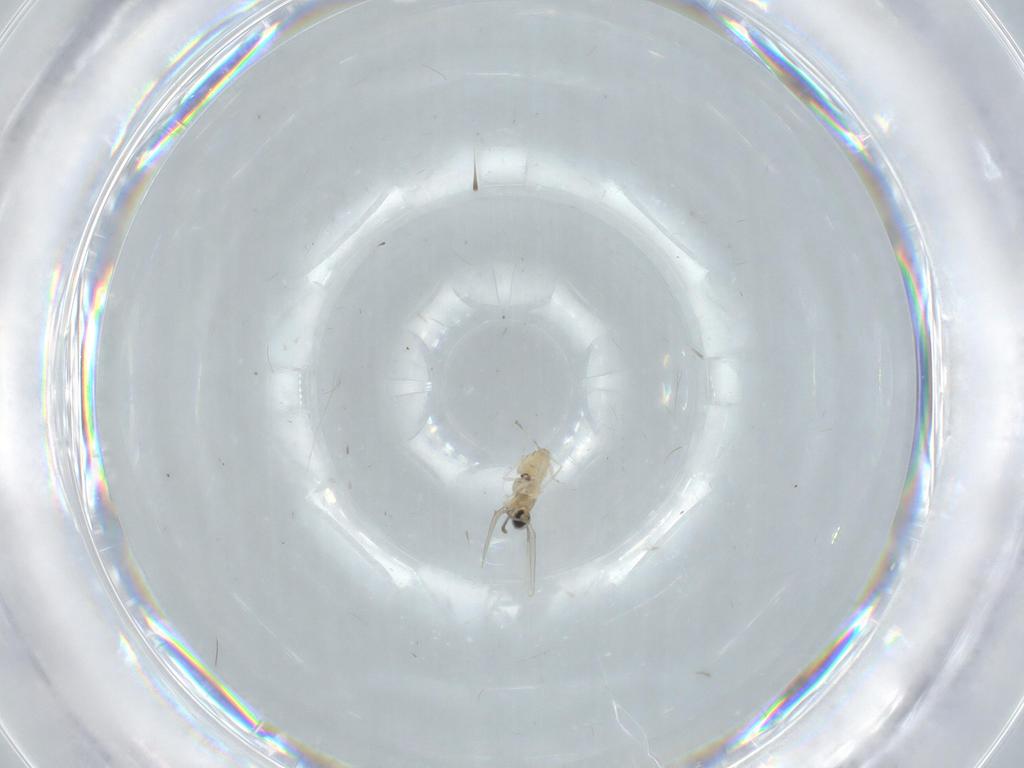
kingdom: Animalia
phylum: Arthropoda
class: Insecta
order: Diptera
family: Cecidomyiidae
